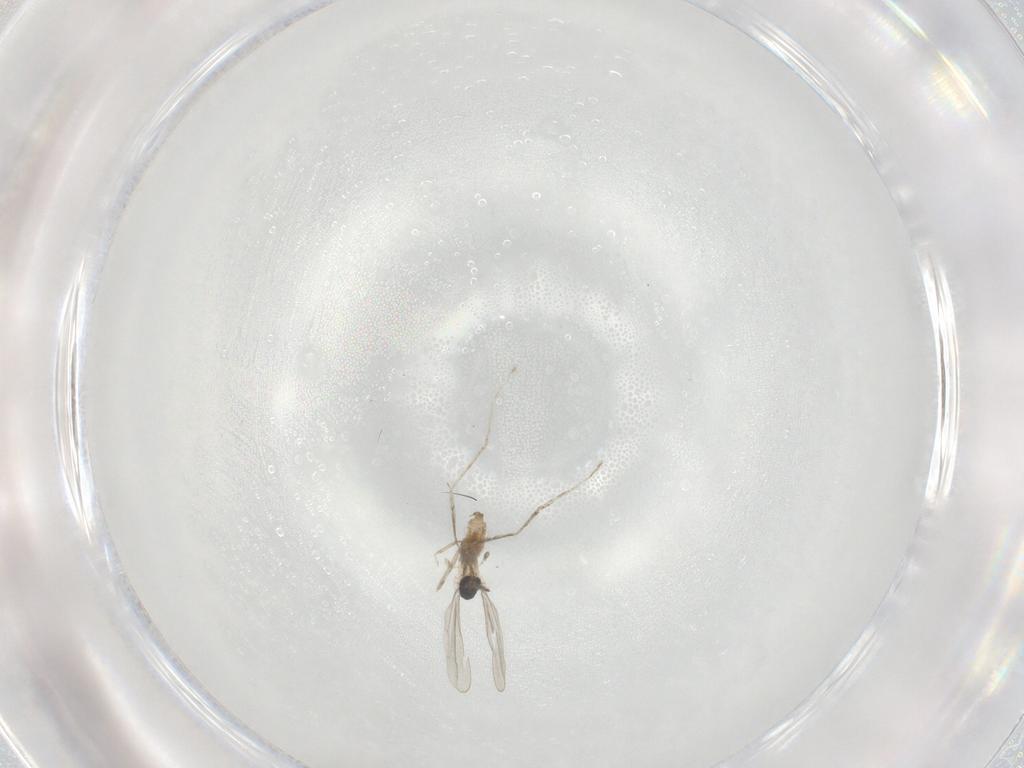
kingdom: Animalia
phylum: Arthropoda
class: Insecta
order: Diptera
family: Cecidomyiidae
